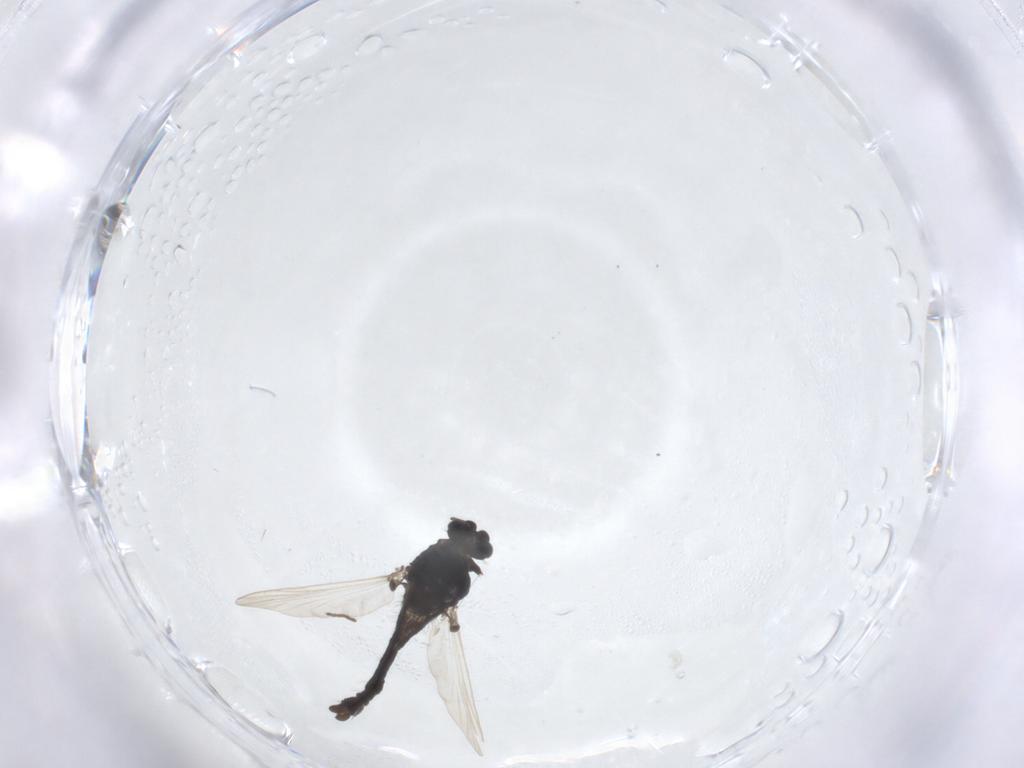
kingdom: Animalia
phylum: Arthropoda
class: Insecta
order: Diptera
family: Chironomidae
